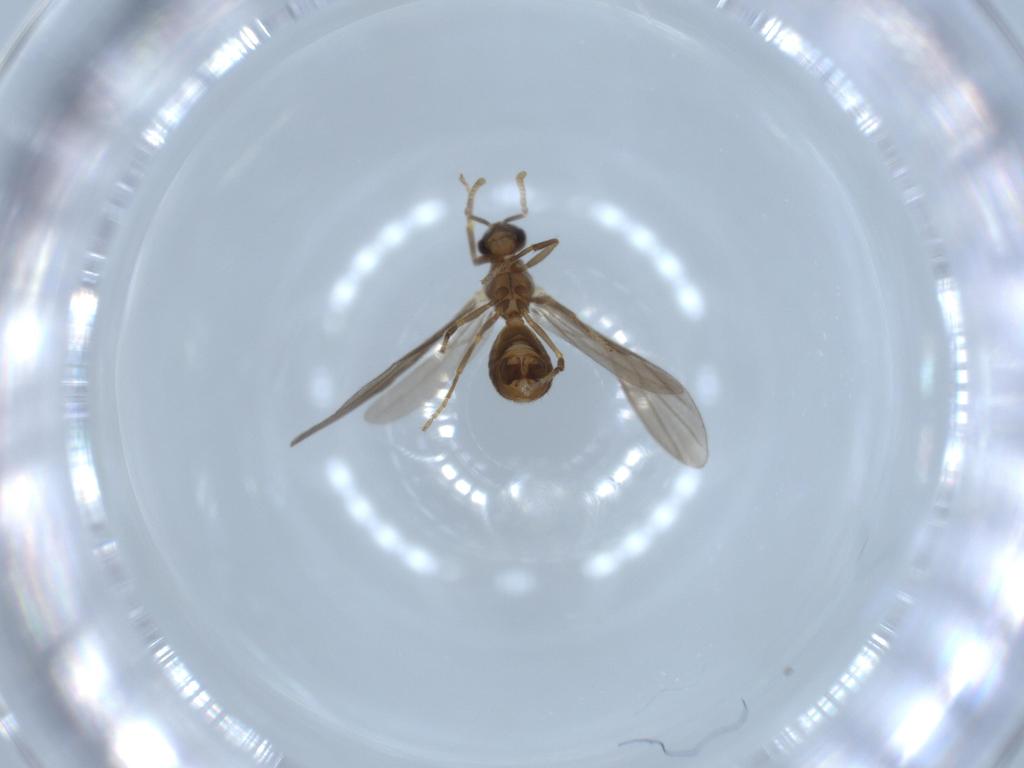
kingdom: Animalia
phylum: Arthropoda
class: Insecta
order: Hymenoptera
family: Formicidae
